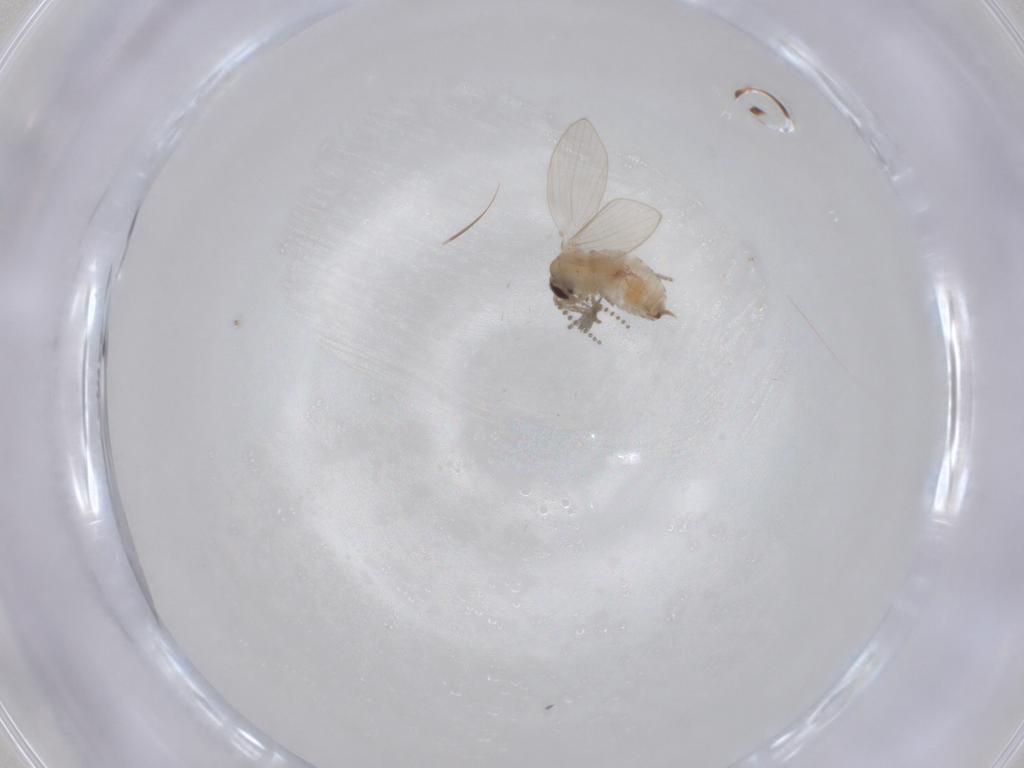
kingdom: Animalia
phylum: Arthropoda
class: Insecta
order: Diptera
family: Psychodidae
